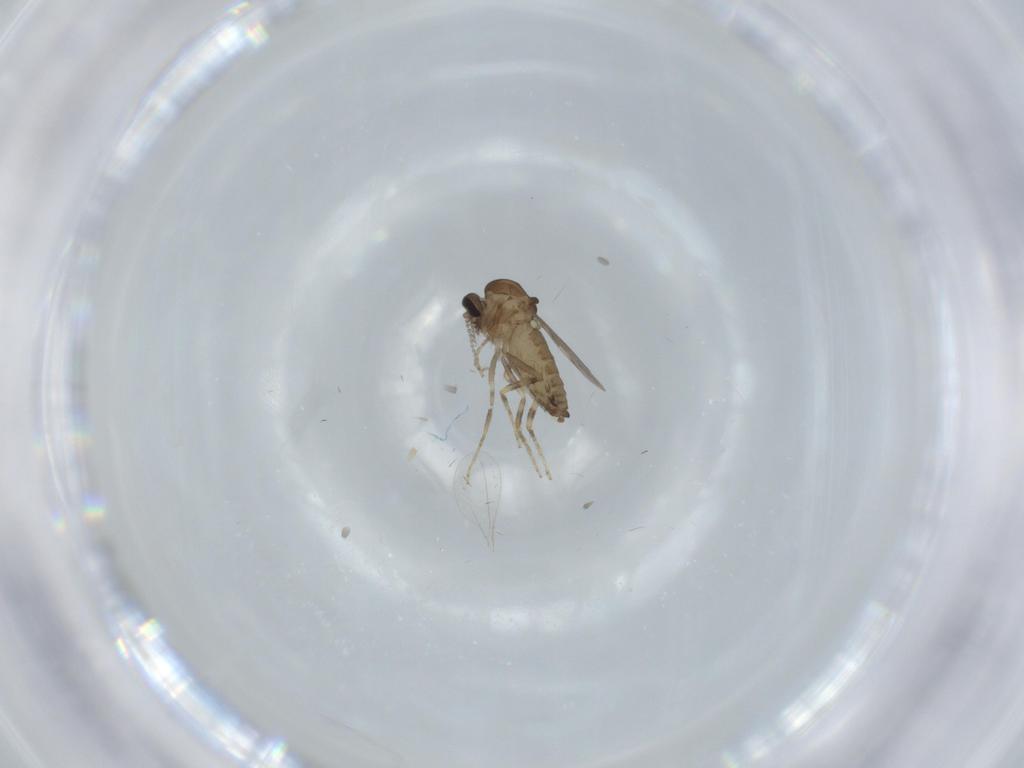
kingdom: Animalia
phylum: Arthropoda
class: Insecta
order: Diptera
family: Ceratopogonidae
